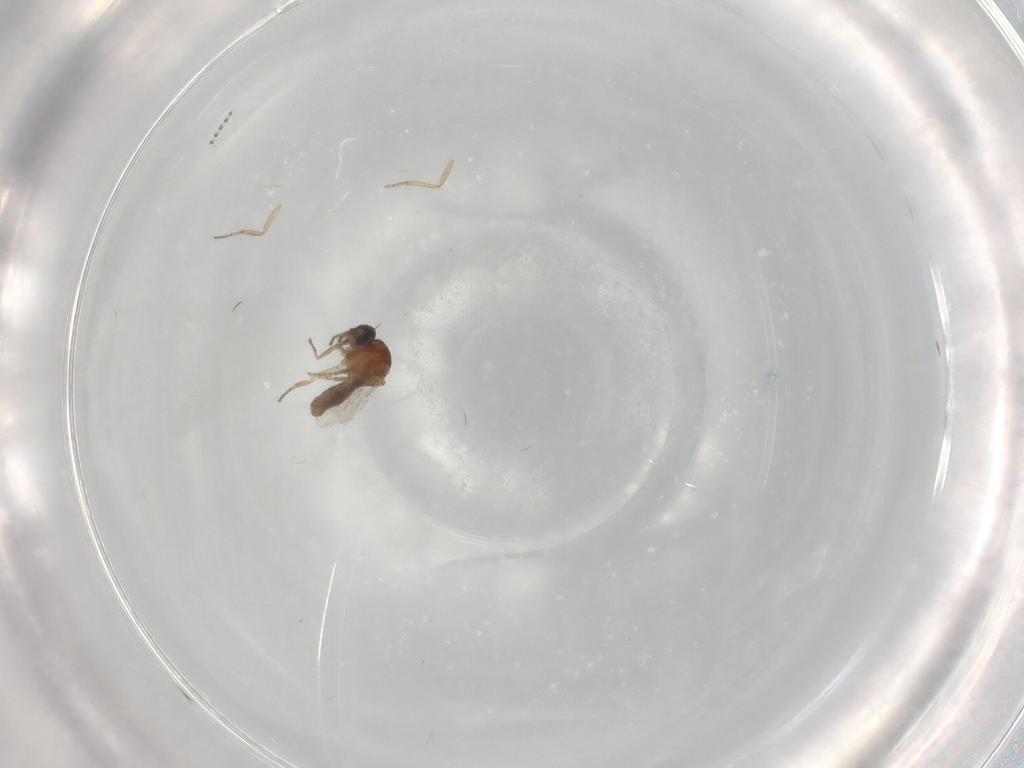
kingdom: Animalia
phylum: Arthropoda
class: Insecta
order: Diptera
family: Ceratopogonidae
